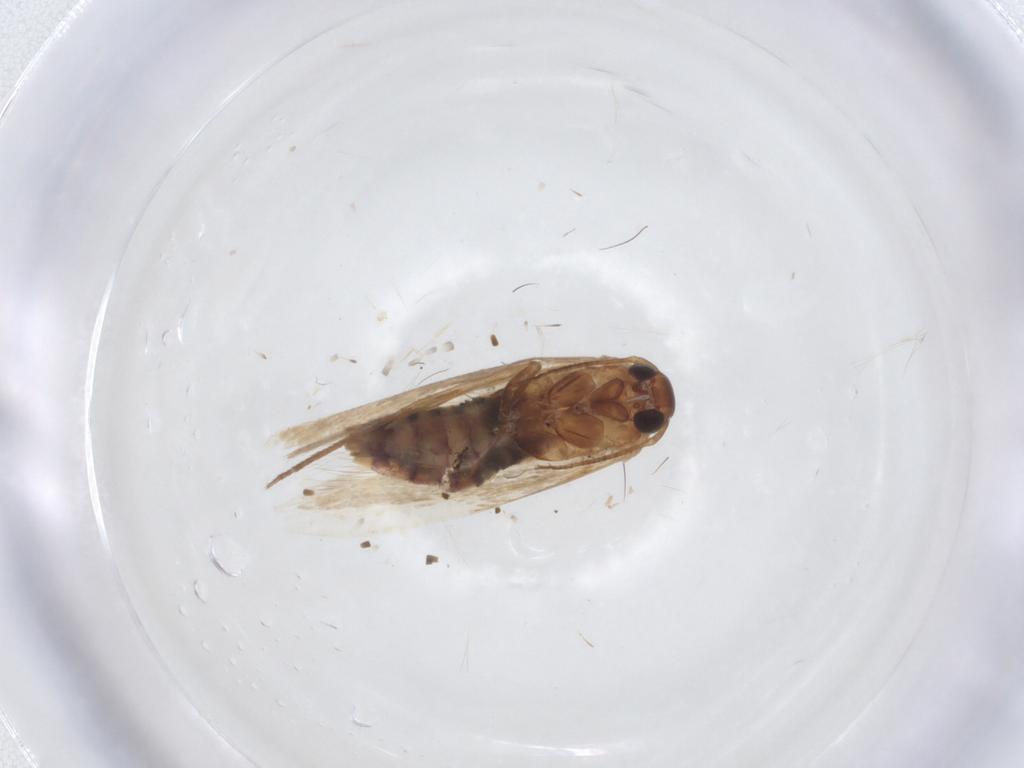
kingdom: Animalia
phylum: Arthropoda
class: Insecta
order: Lepidoptera
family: Cosmopterigidae
